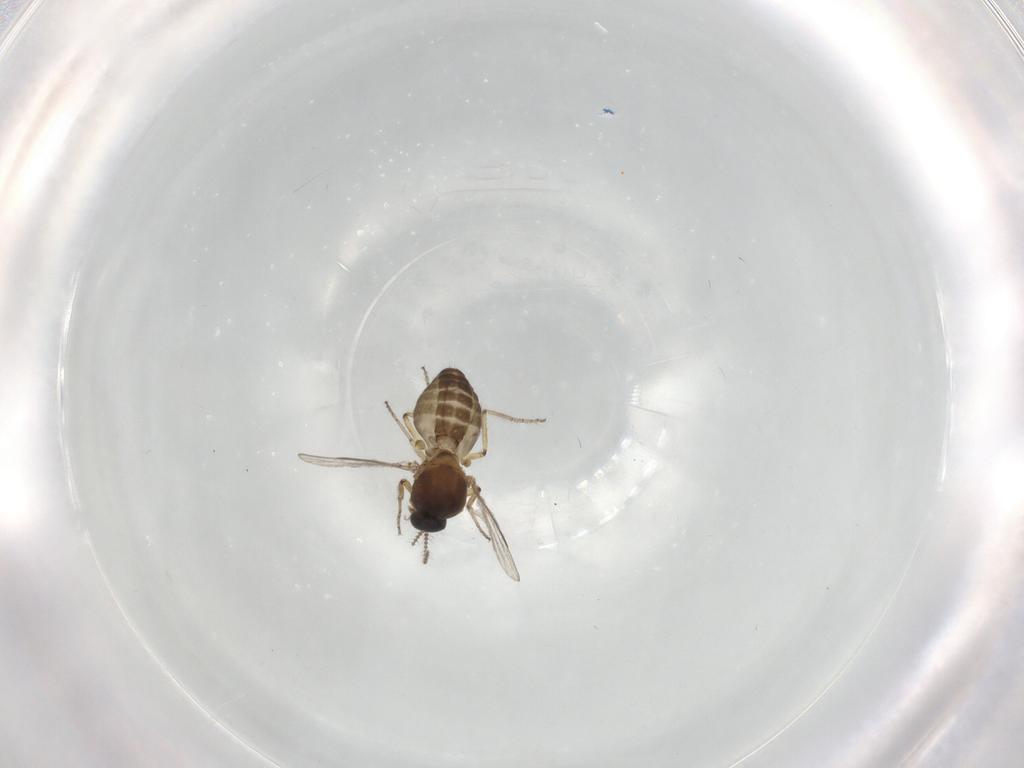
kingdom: Animalia
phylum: Arthropoda
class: Insecta
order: Diptera
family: Ceratopogonidae
